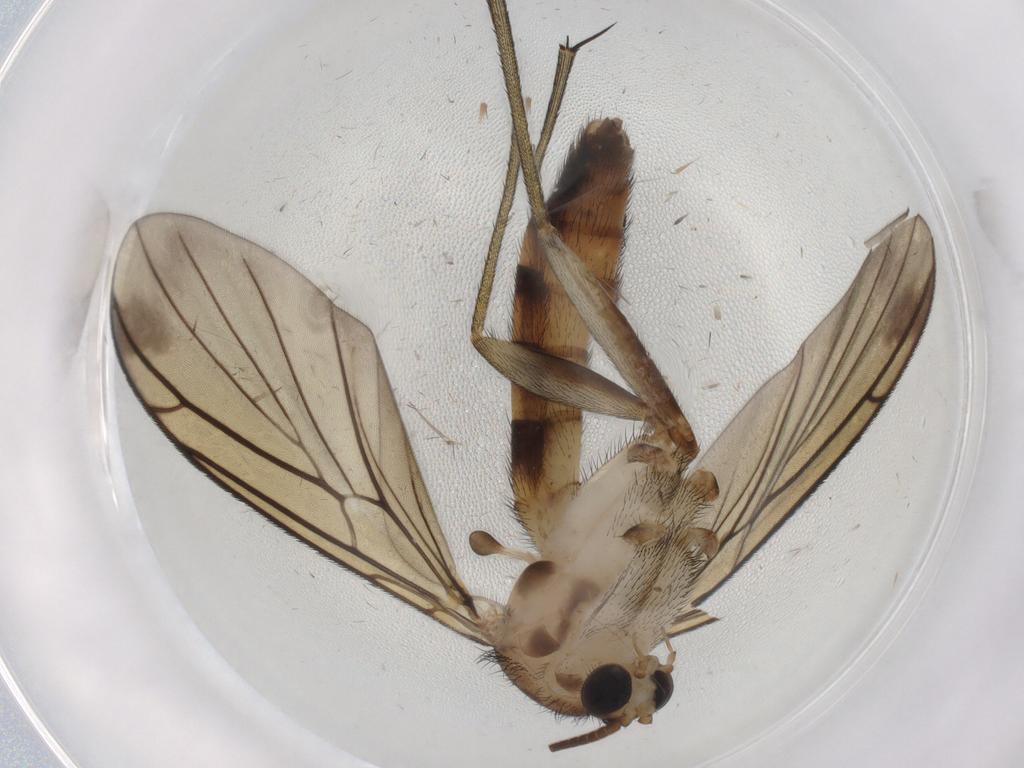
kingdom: Animalia
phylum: Arthropoda
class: Insecta
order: Diptera
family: Keroplatidae
